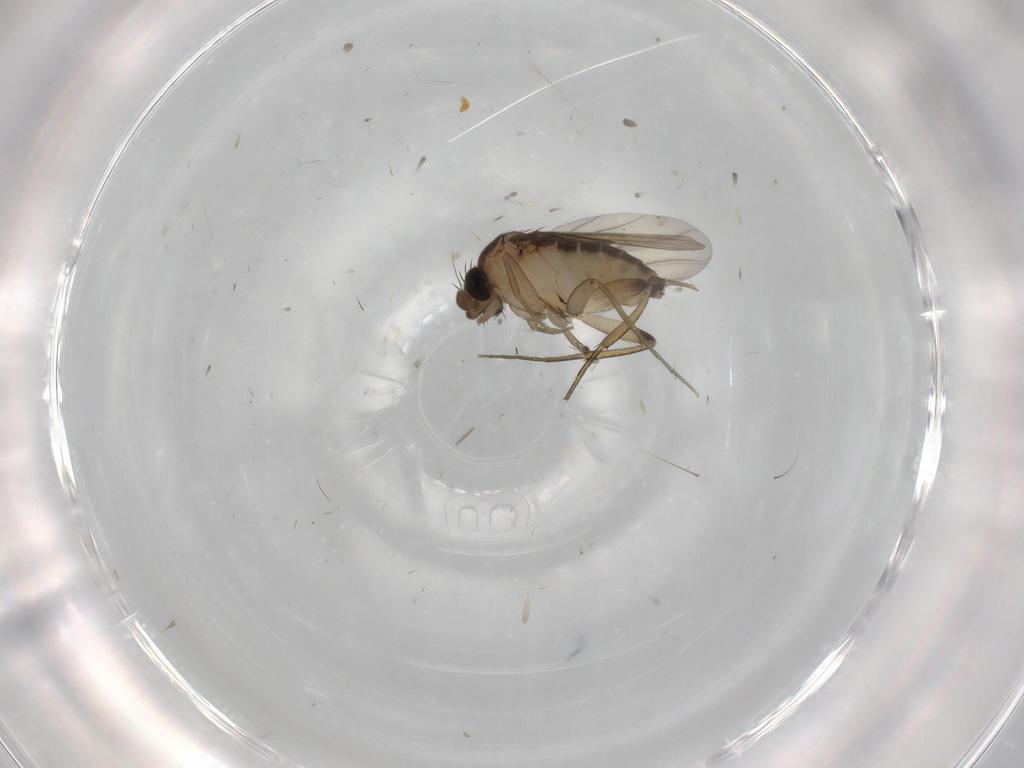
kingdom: Animalia
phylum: Arthropoda
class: Insecta
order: Diptera
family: Phoridae
